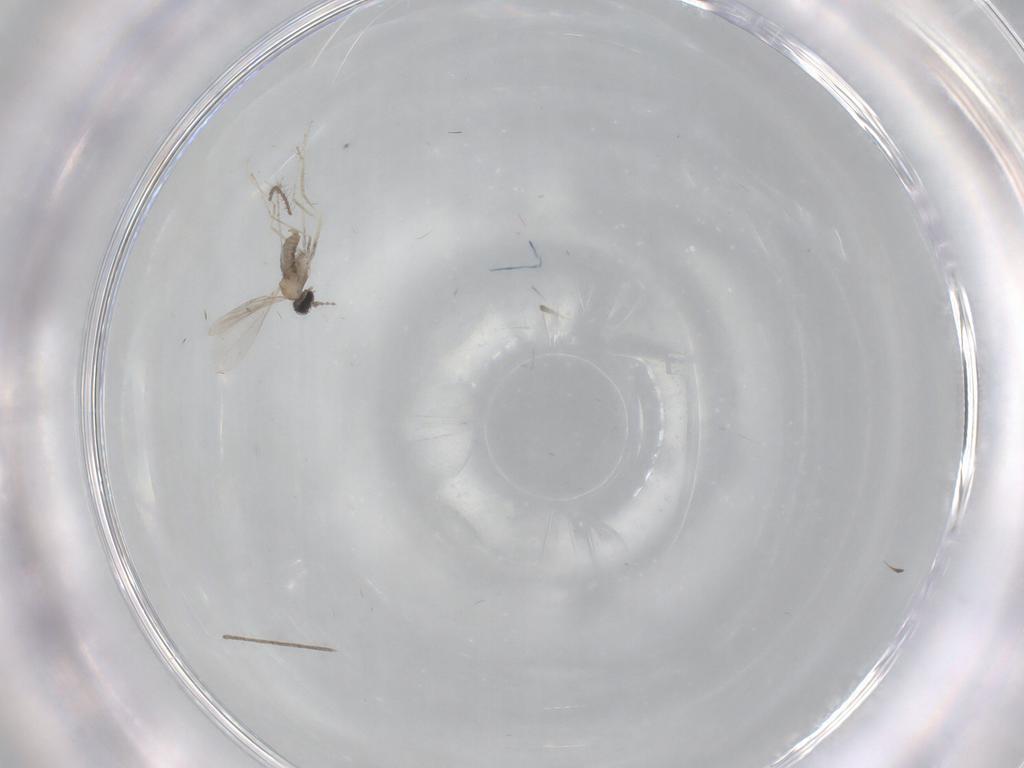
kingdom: Animalia
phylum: Arthropoda
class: Insecta
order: Diptera
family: Cecidomyiidae
